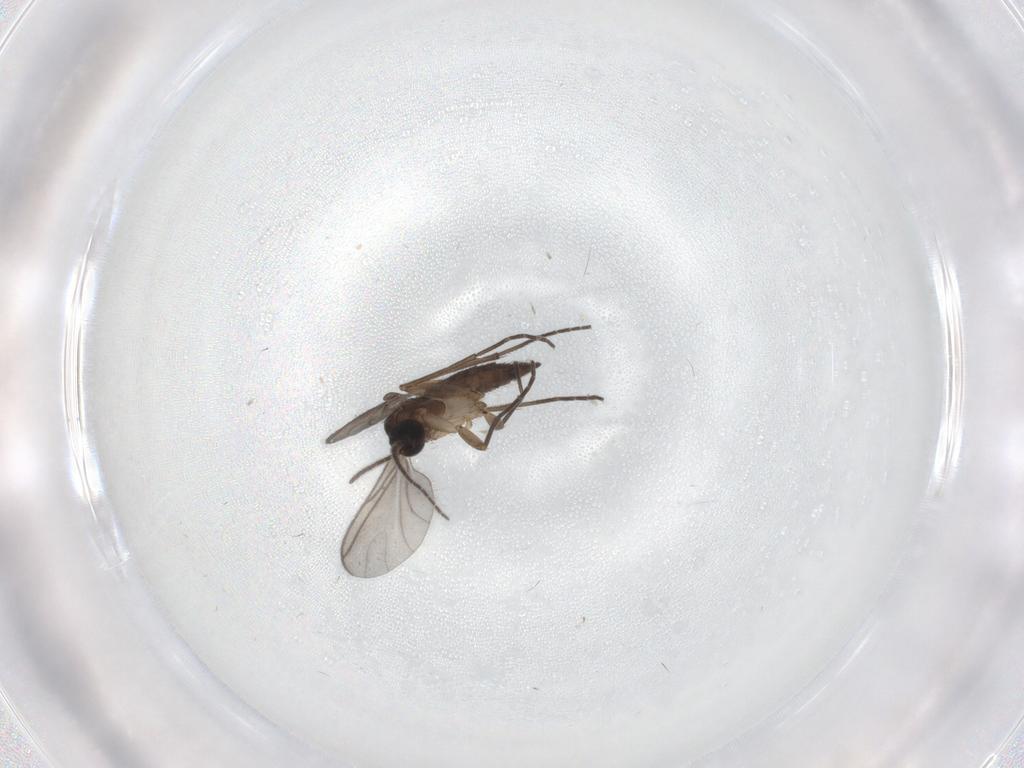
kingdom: Animalia
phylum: Arthropoda
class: Insecta
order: Diptera
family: Sciaridae
